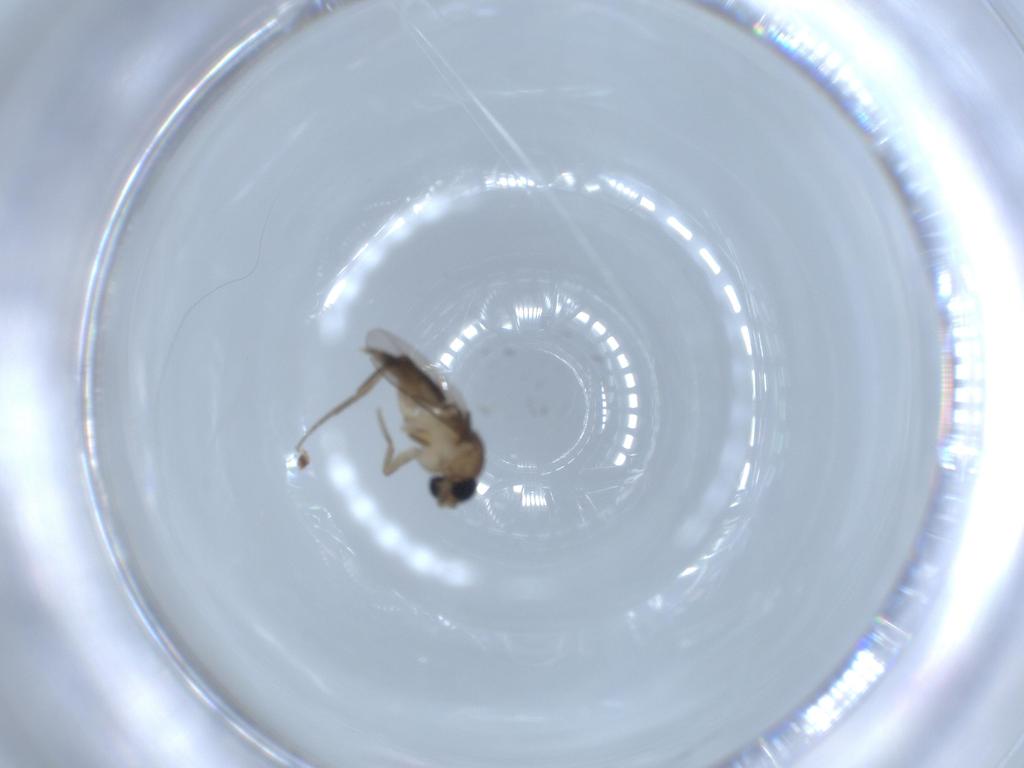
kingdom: Animalia
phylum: Arthropoda
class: Insecta
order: Diptera
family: Phoridae
